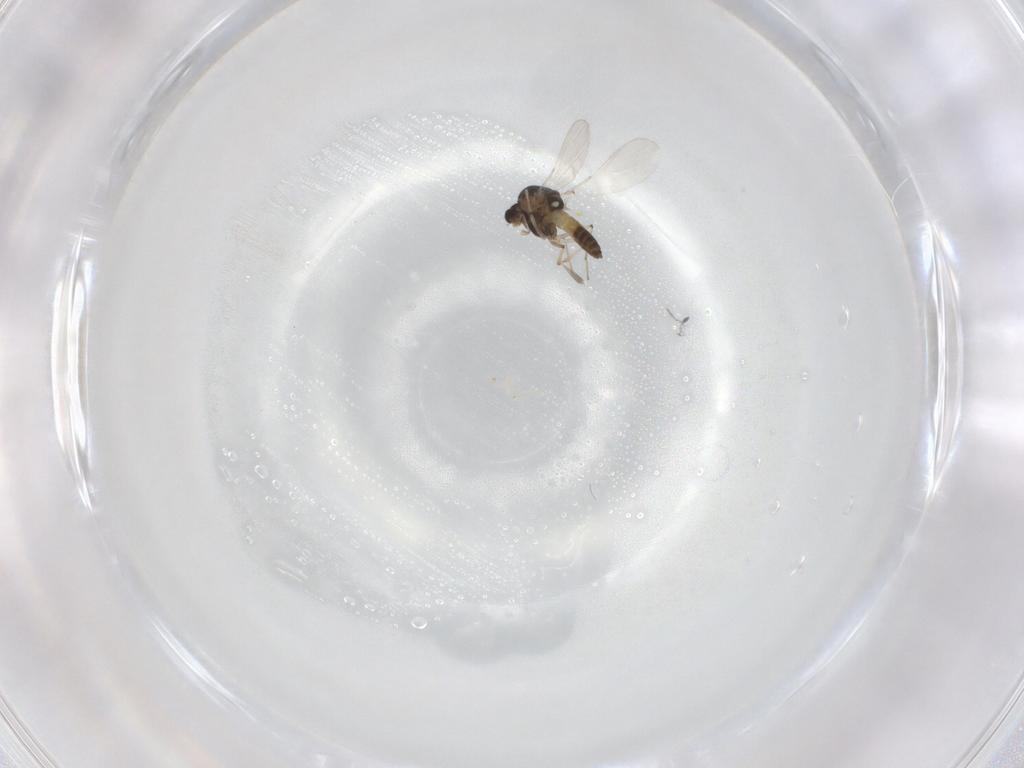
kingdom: Animalia
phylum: Arthropoda
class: Insecta
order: Diptera
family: Chironomidae
